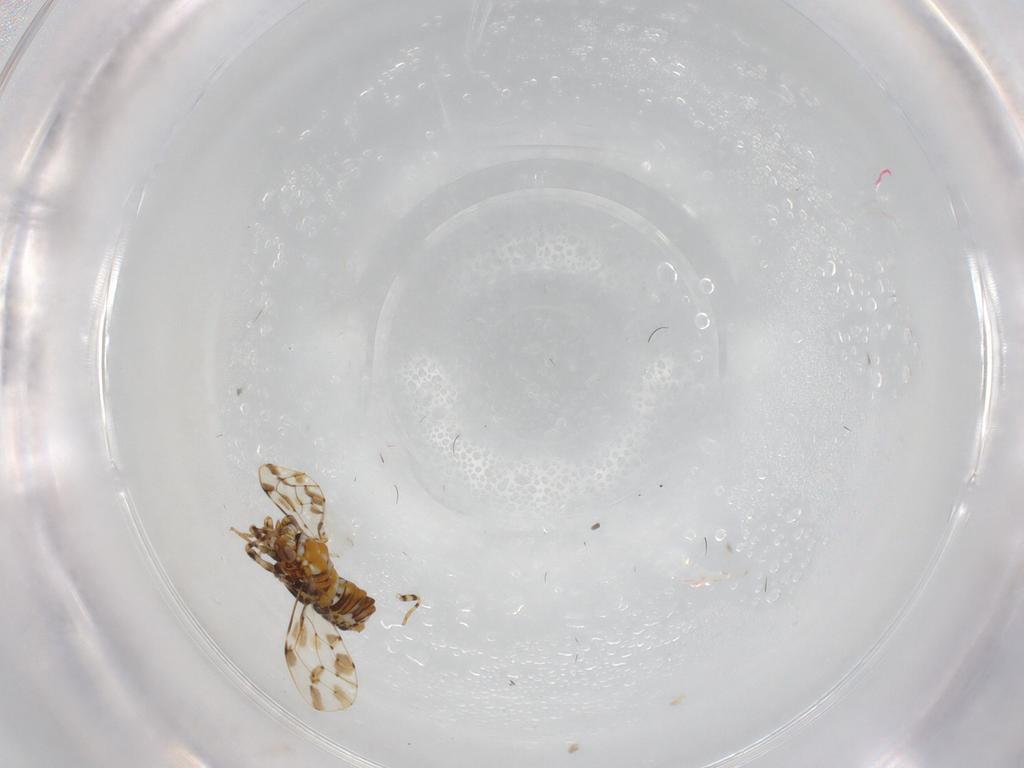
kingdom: Animalia
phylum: Arthropoda
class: Insecta
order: Hemiptera
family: Psylloidea_incertae_sedis
